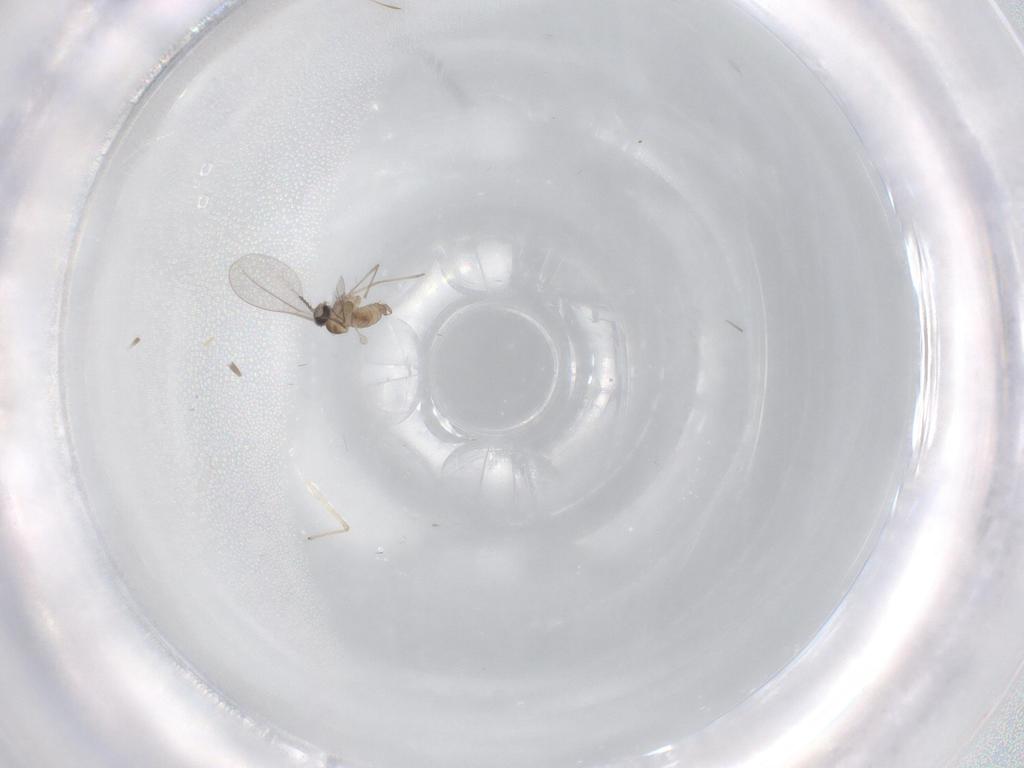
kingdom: Animalia
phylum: Arthropoda
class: Insecta
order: Diptera
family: Cecidomyiidae
